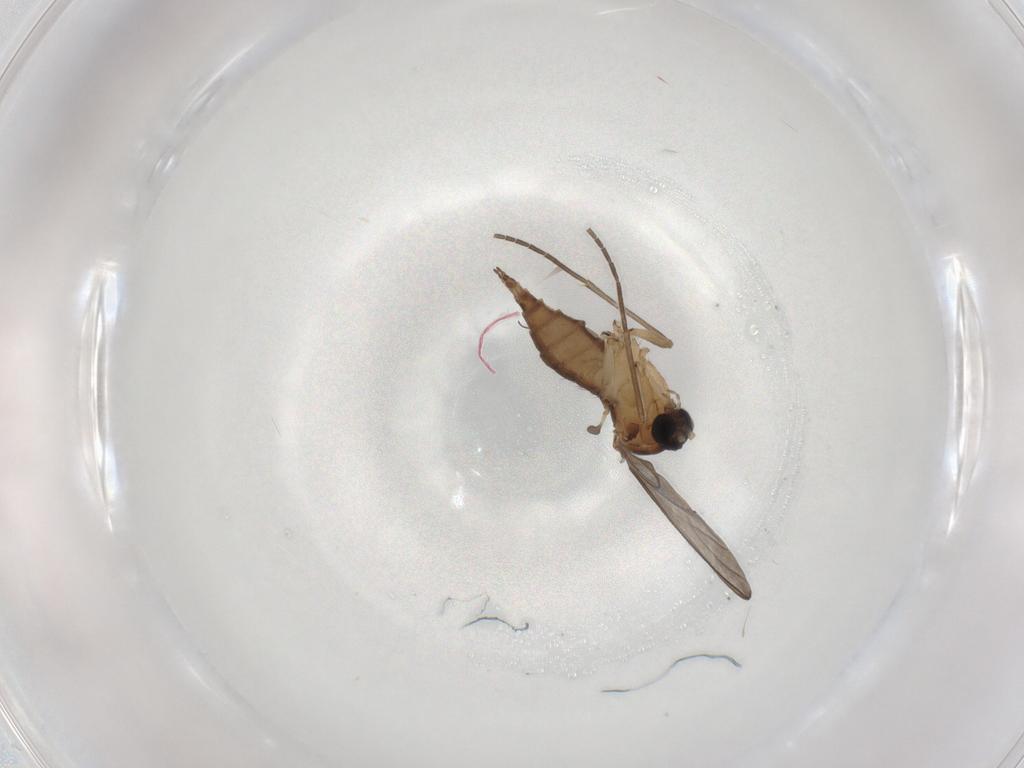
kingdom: Animalia
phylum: Arthropoda
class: Insecta
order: Diptera
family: Sciaridae
